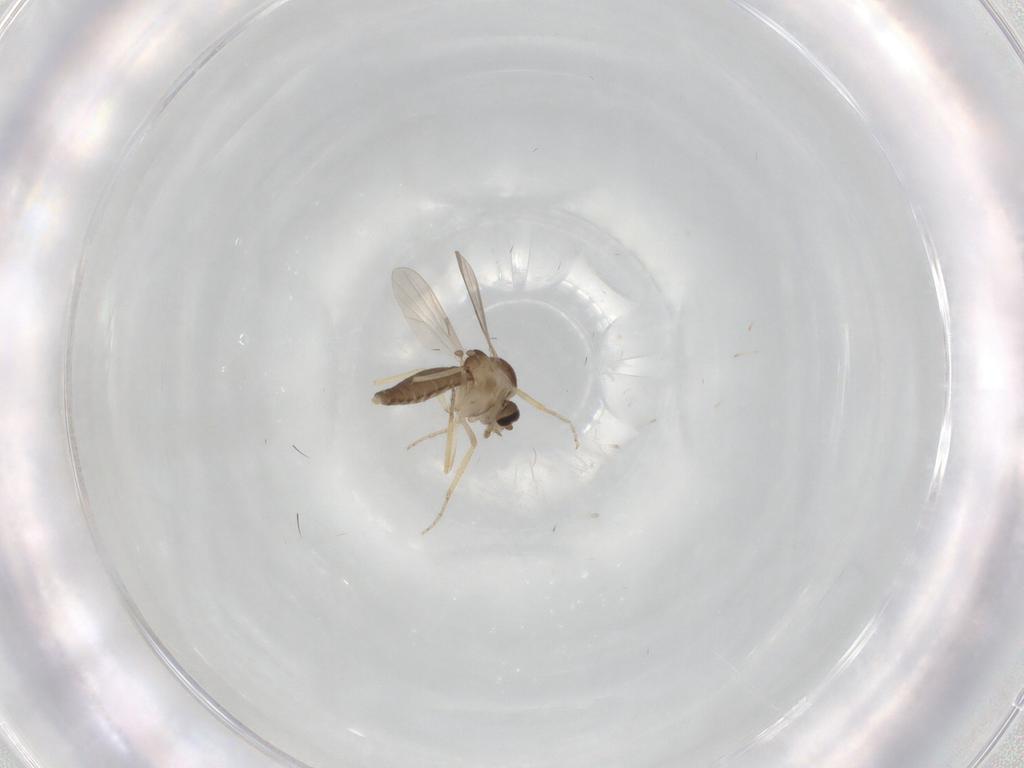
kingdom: Animalia
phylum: Arthropoda
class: Insecta
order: Diptera
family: Ceratopogonidae
